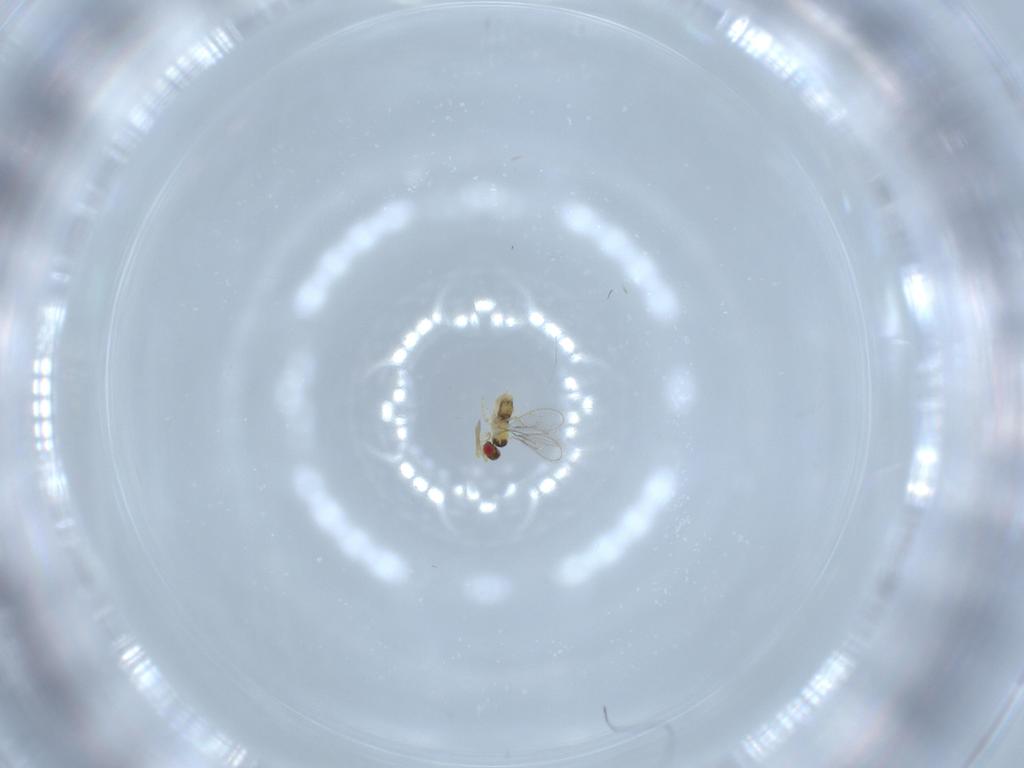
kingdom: Animalia
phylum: Arthropoda
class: Insecta
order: Hymenoptera
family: Aphelinidae
